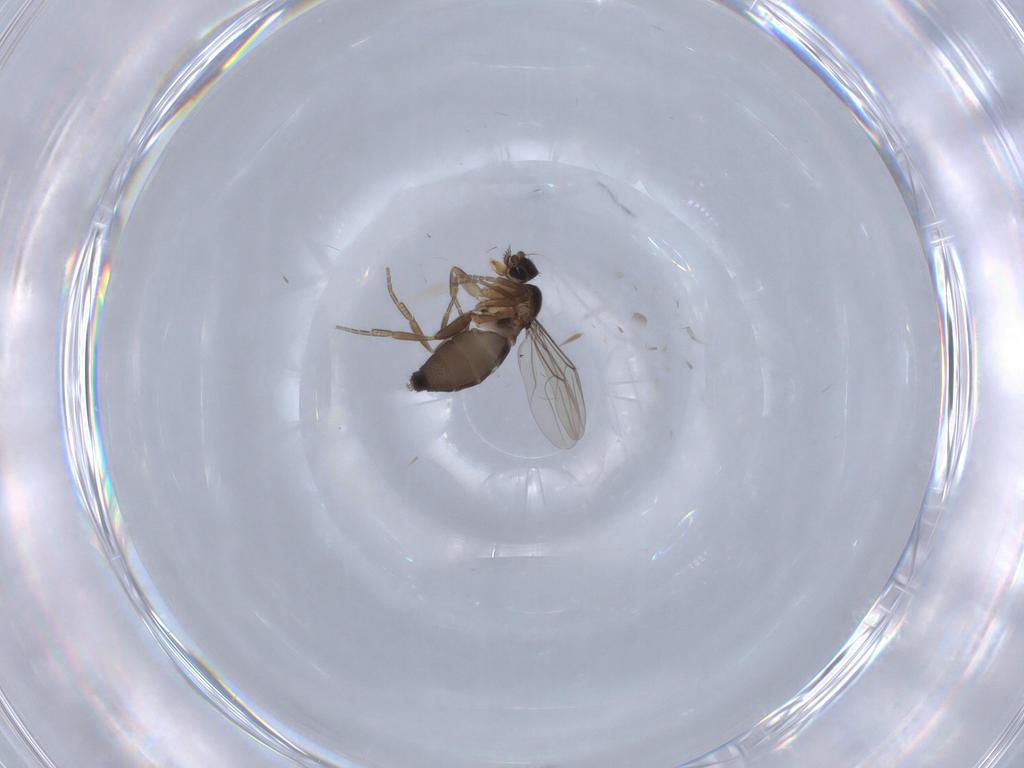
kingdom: Animalia
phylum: Arthropoda
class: Insecta
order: Diptera
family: Phoridae
